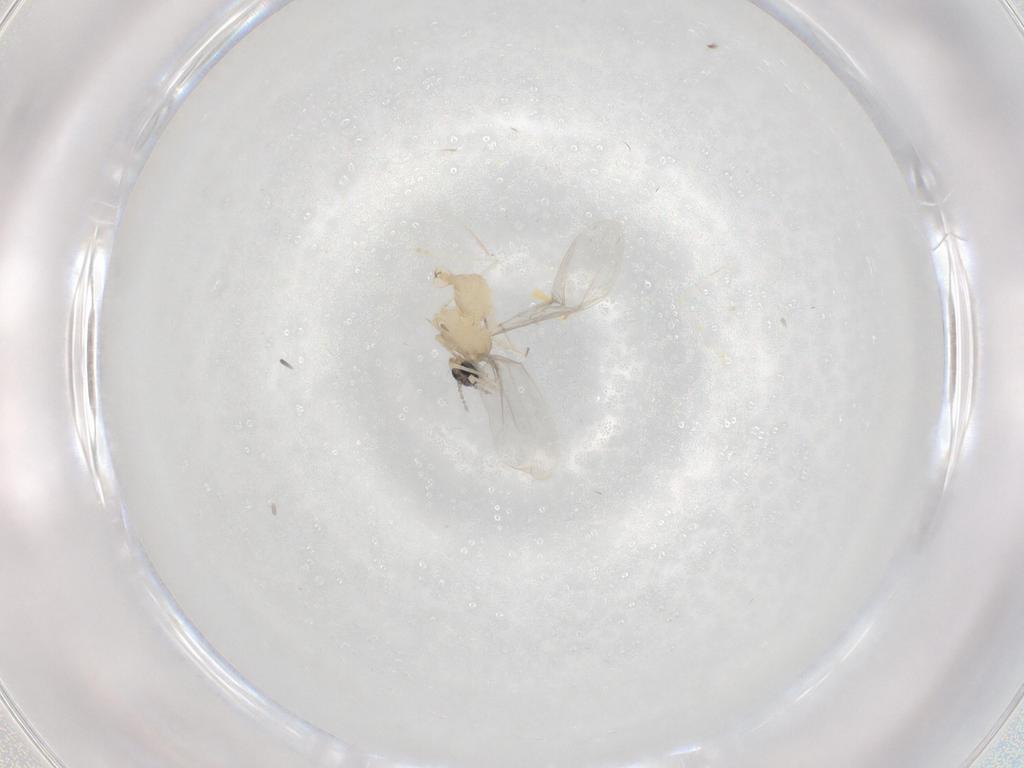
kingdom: Animalia
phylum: Arthropoda
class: Insecta
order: Diptera
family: Cecidomyiidae
